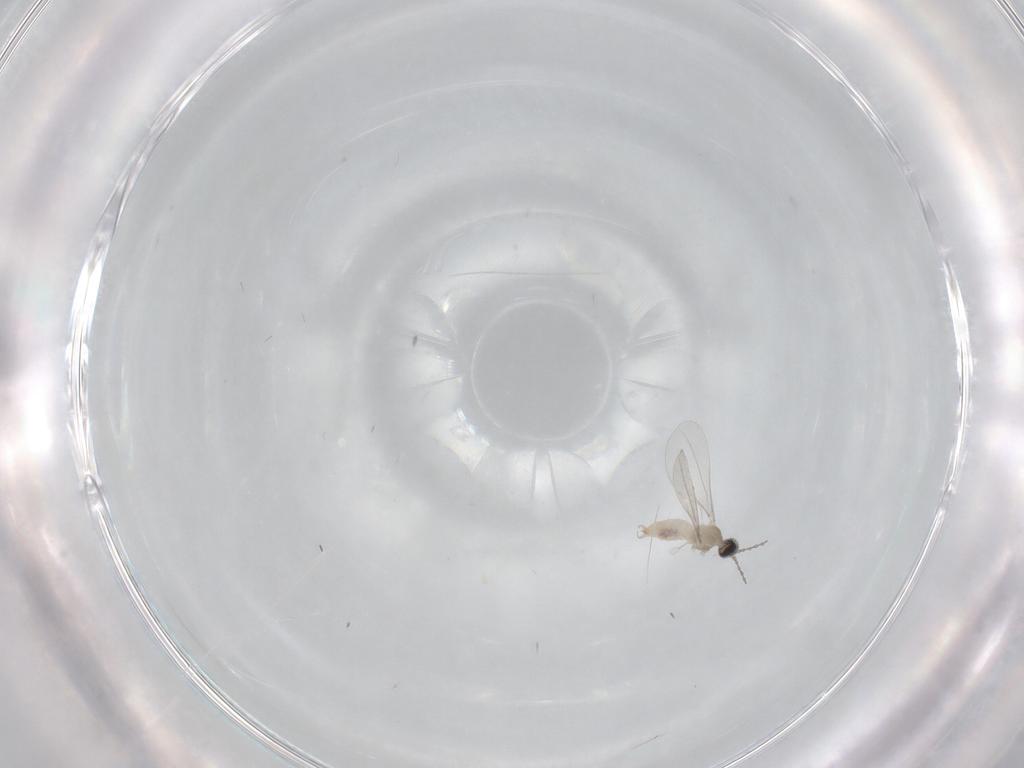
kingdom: Animalia
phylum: Arthropoda
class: Insecta
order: Diptera
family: Cecidomyiidae
